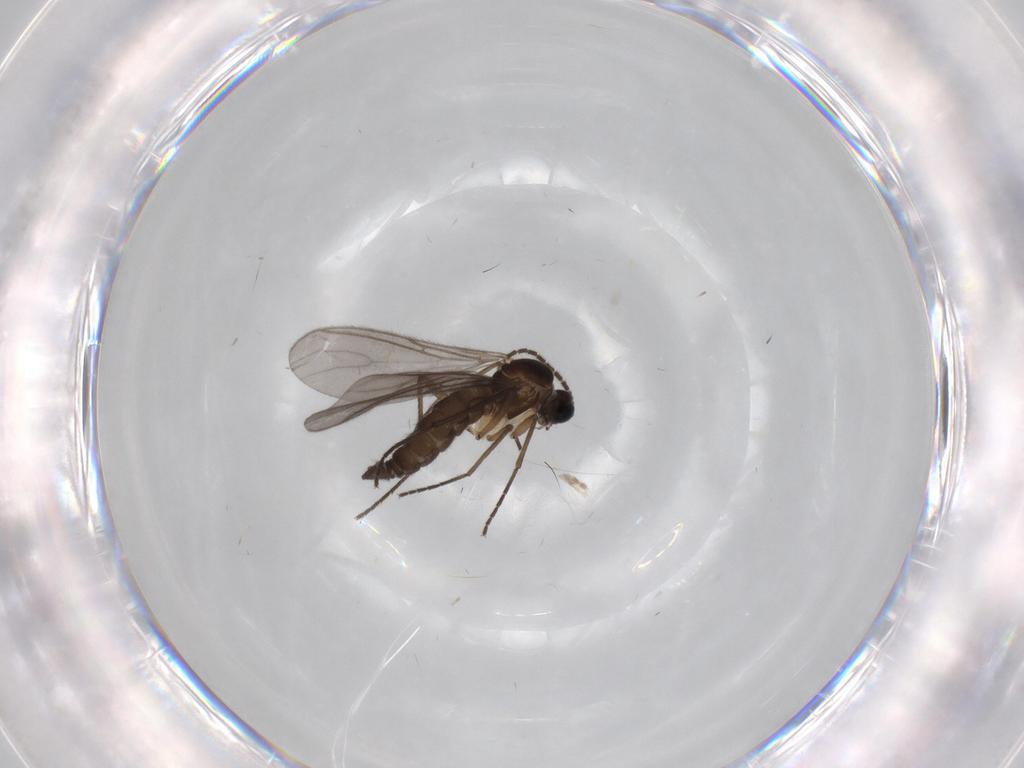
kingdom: Animalia
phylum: Arthropoda
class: Insecta
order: Diptera
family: Sciaridae
